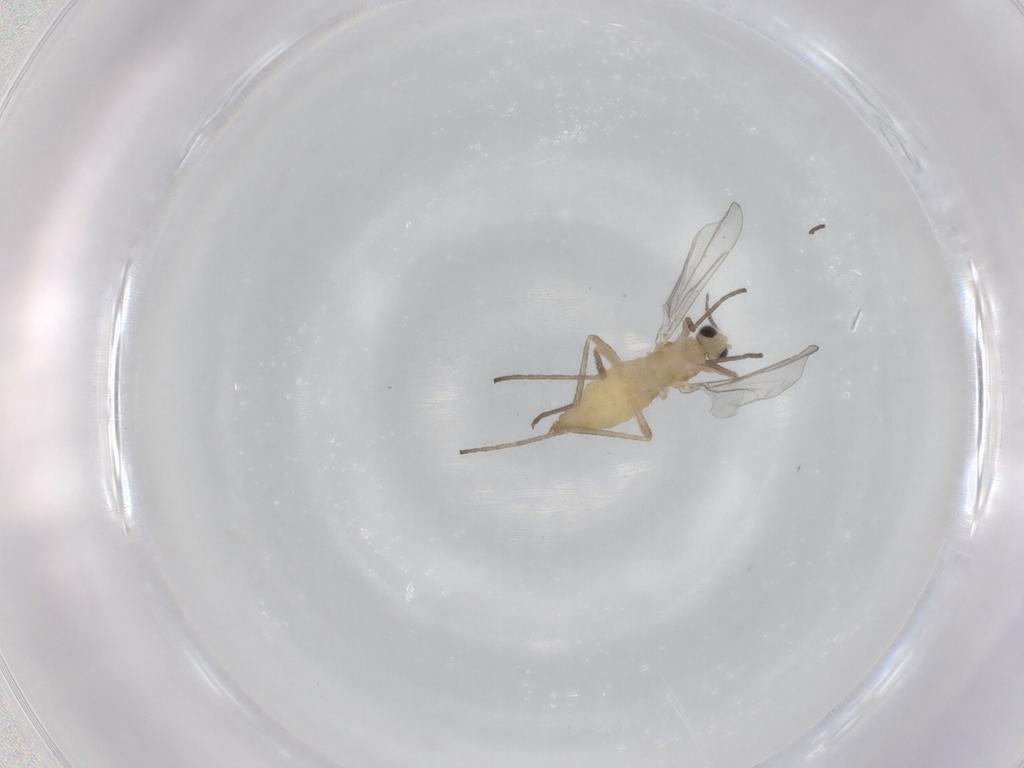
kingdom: Animalia
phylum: Arthropoda
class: Insecta
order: Diptera
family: Cecidomyiidae
